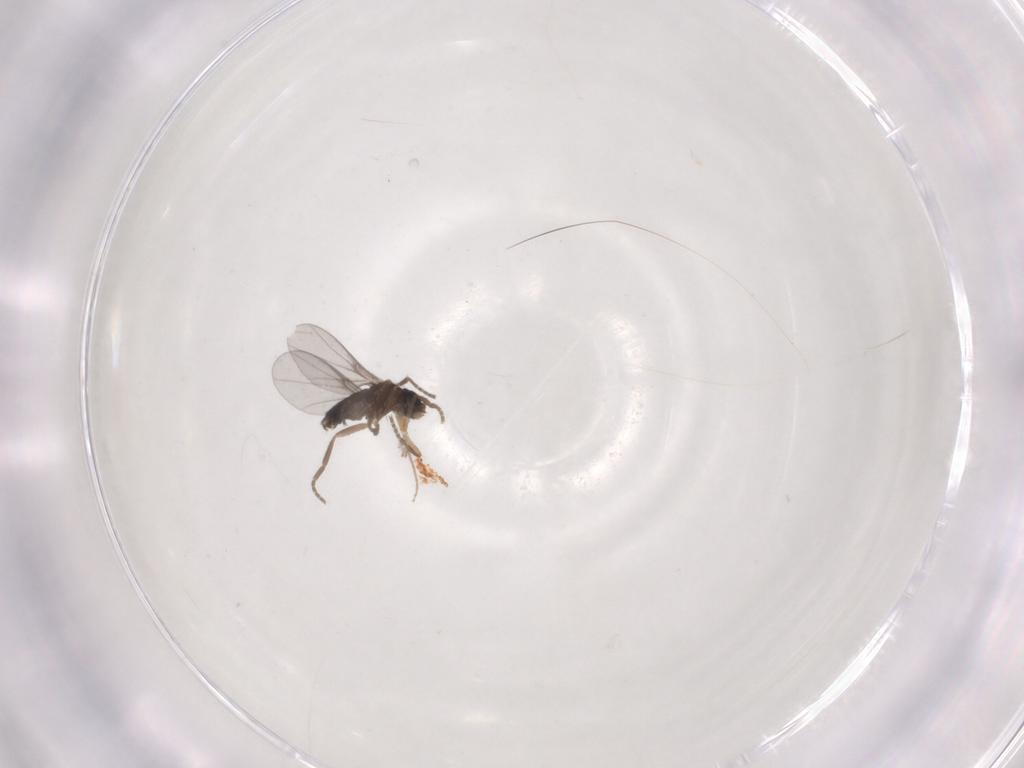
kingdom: Animalia
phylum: Arthropoda
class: Insecta
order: Diptera
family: Phoridae
